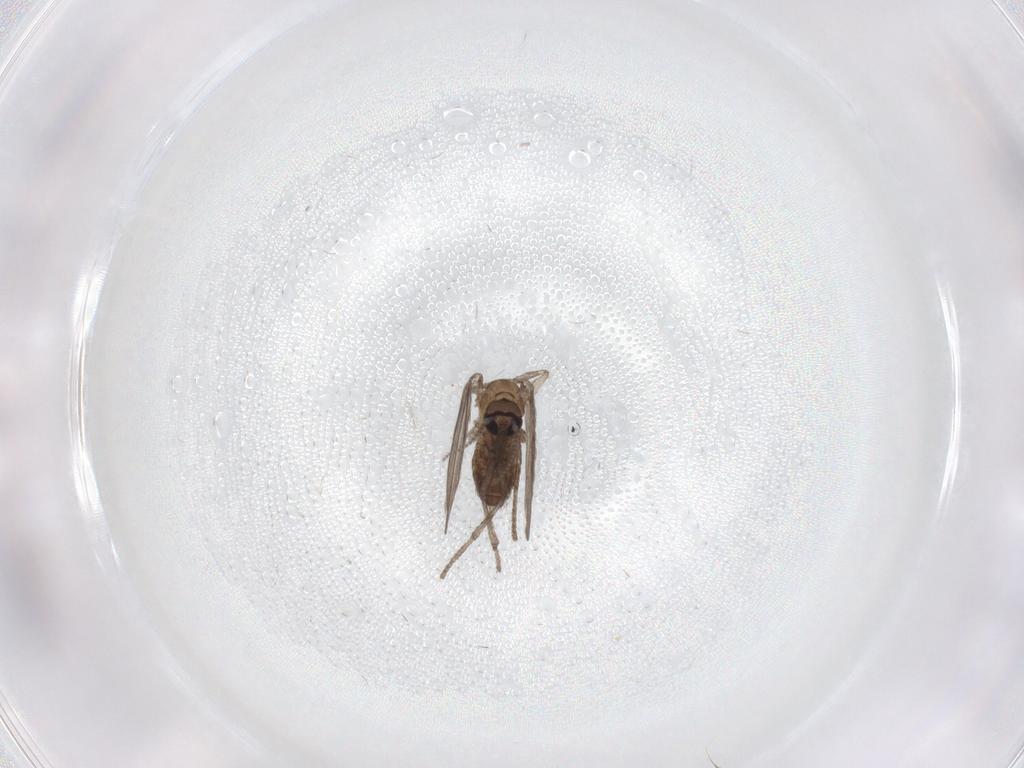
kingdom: Animalia
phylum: Arthropoda
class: Insecta
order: Diptera
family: Psychodidae
